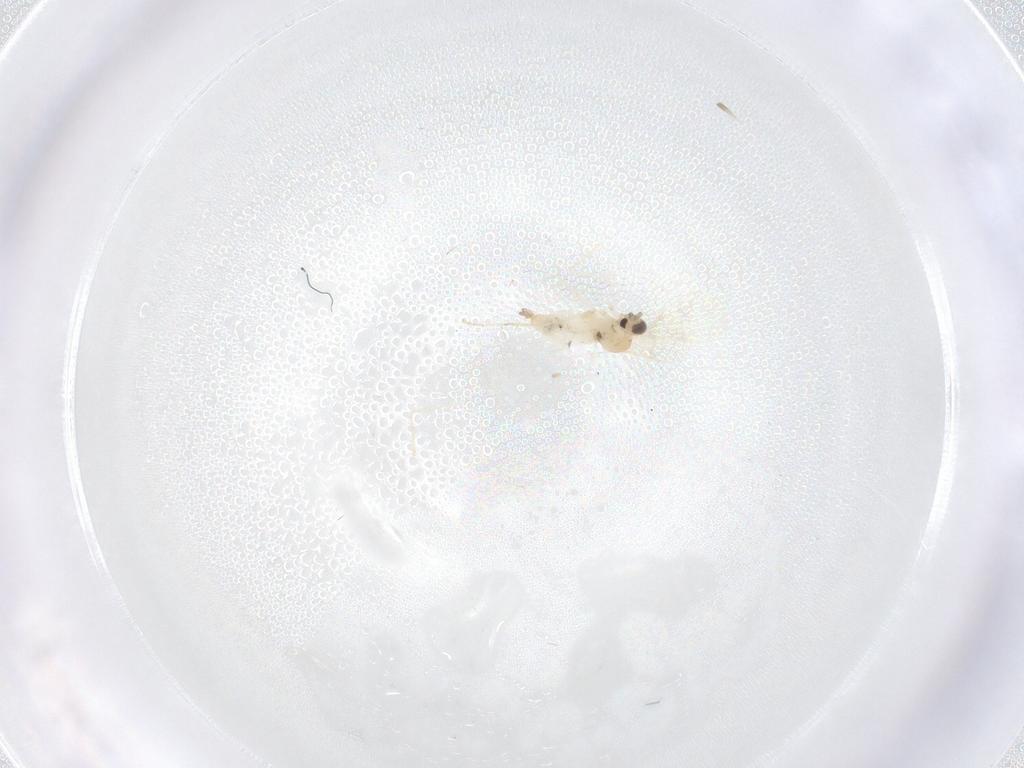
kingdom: Animalia
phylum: Arthropoda
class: Insecta
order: Diptera
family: Cecidomyiidae
